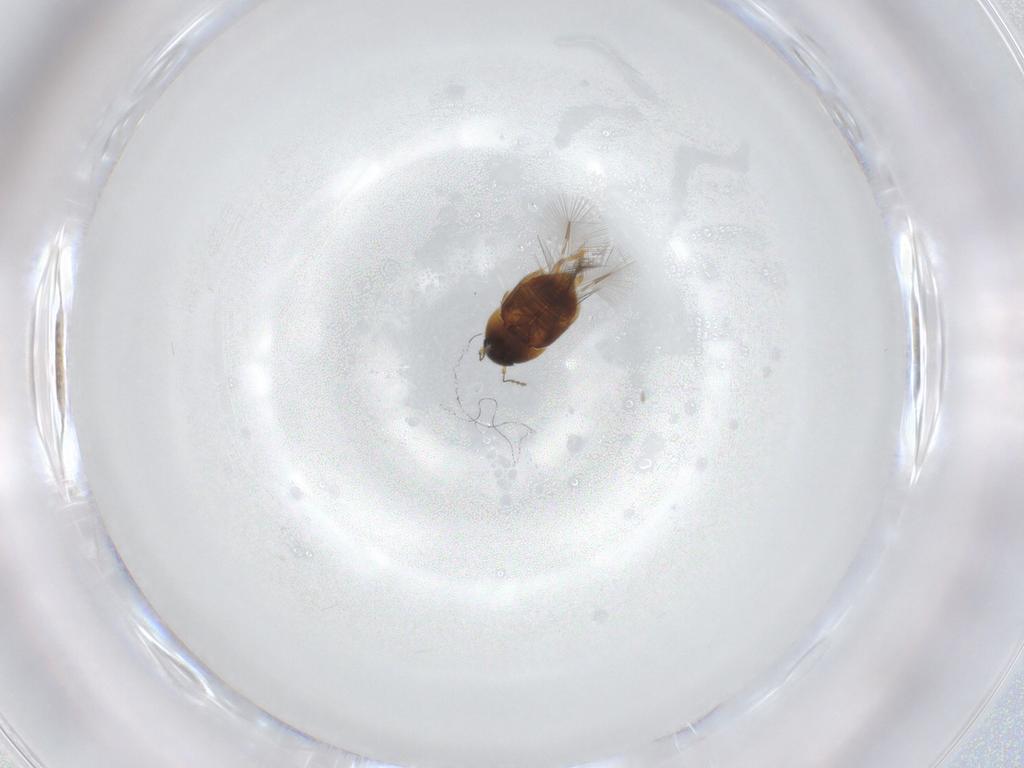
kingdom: Animalia
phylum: Arthropoda
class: Insecta
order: Coleoptera
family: Ptiliidae
